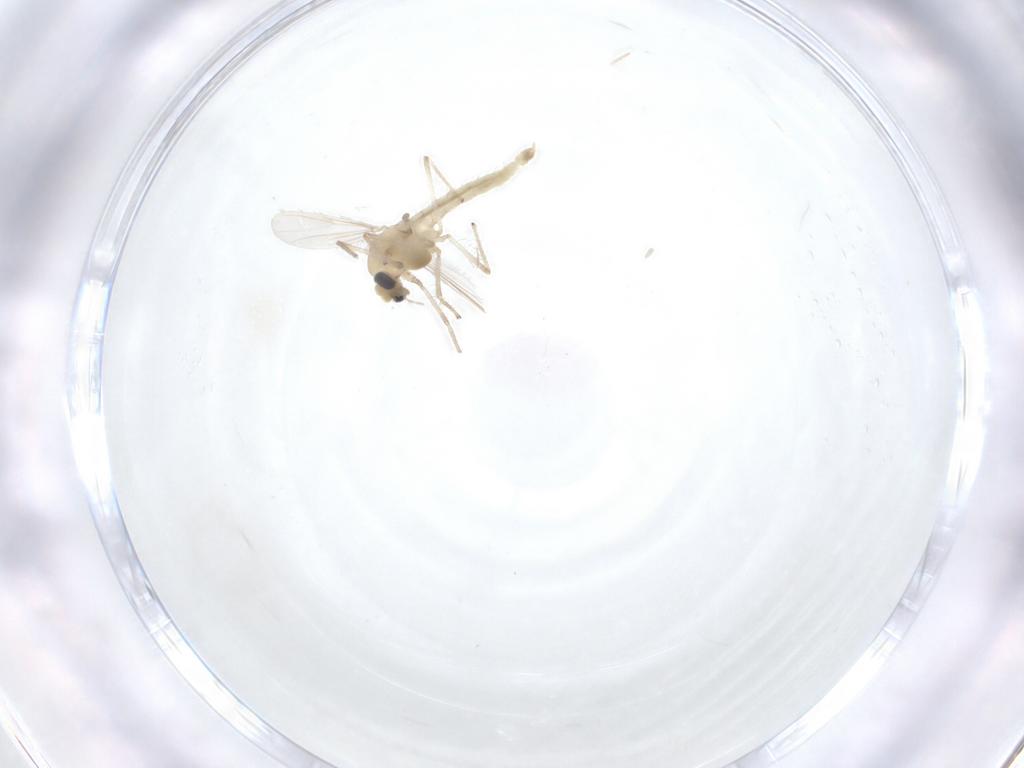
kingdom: Animalia
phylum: Arthropoda
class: Insecta
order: Diptera
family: Chironomidae
